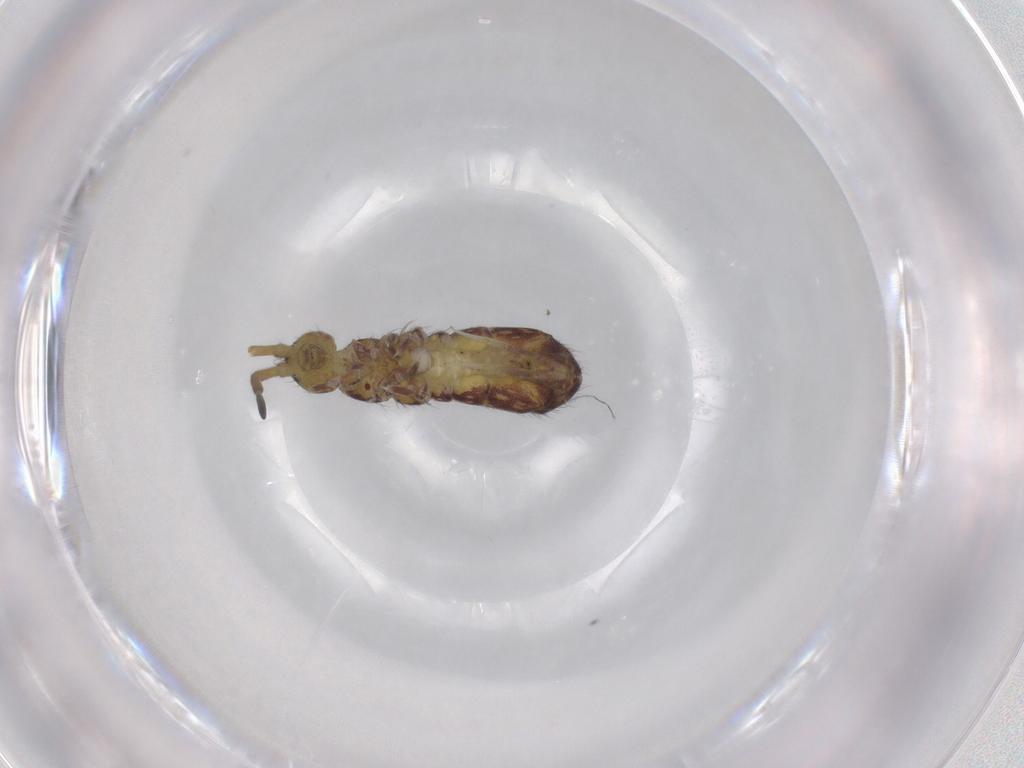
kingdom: Animalia
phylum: Arthropoda
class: Collembola
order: Entomobryomorpha
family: Isotomidae
